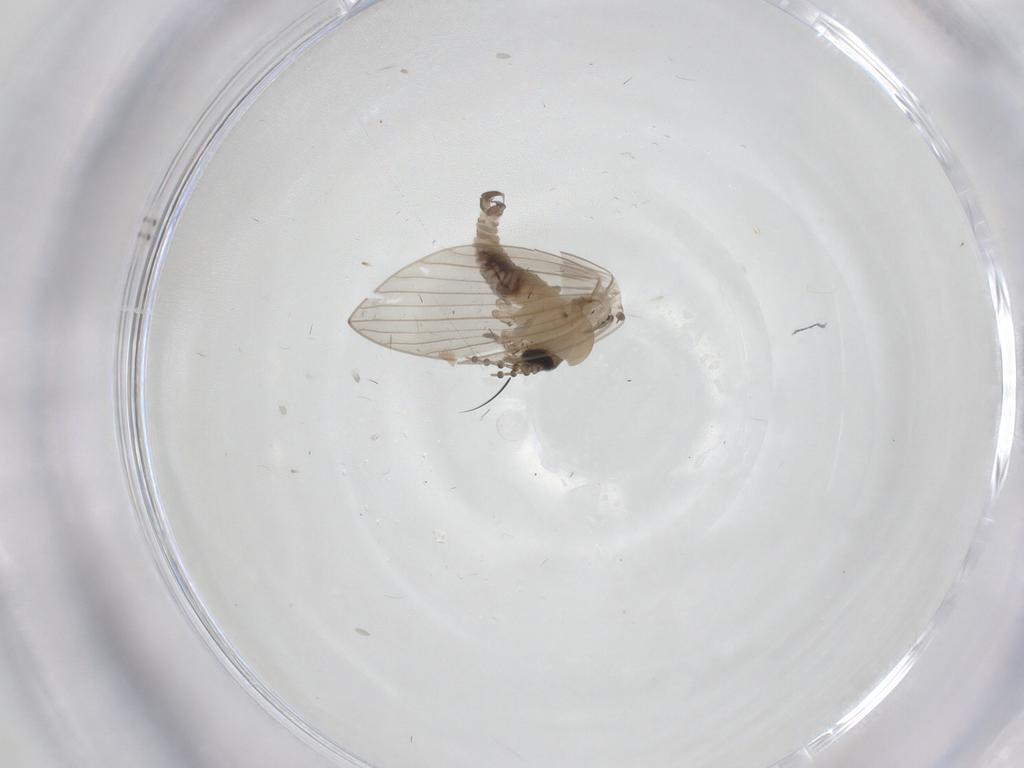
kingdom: Animalia
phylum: Arthropoda
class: Insecta
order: Diptera
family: Psychodidae
